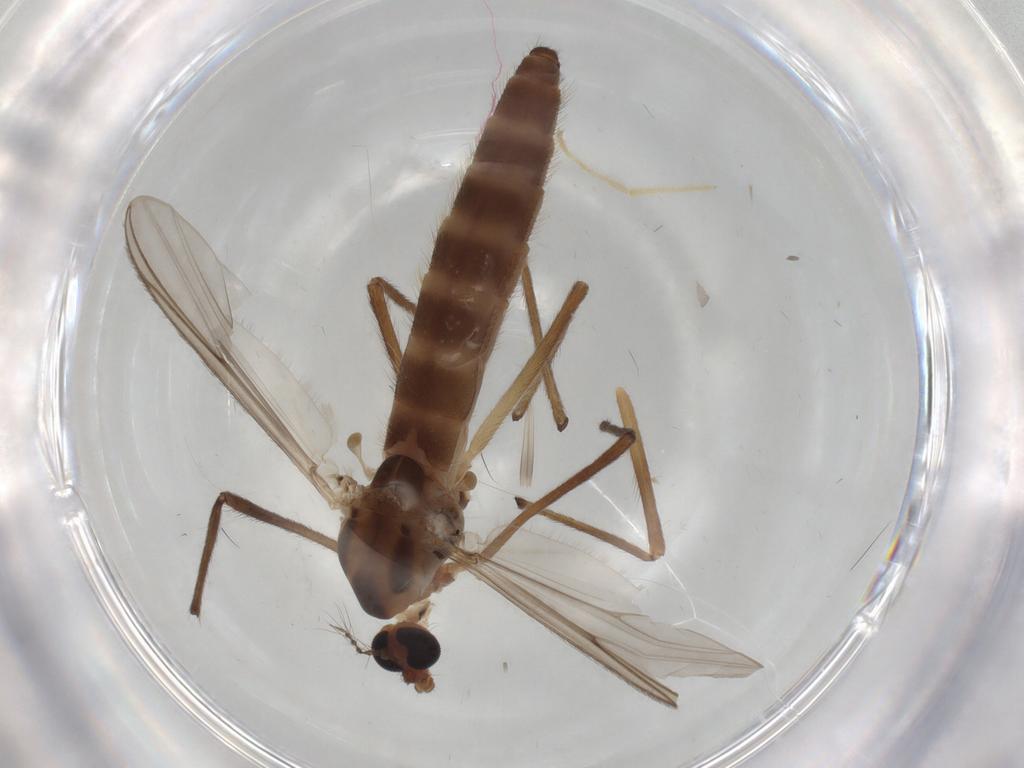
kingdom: Animalia
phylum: Arthropoda
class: Insecta
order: Diptera
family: Chironomidae
